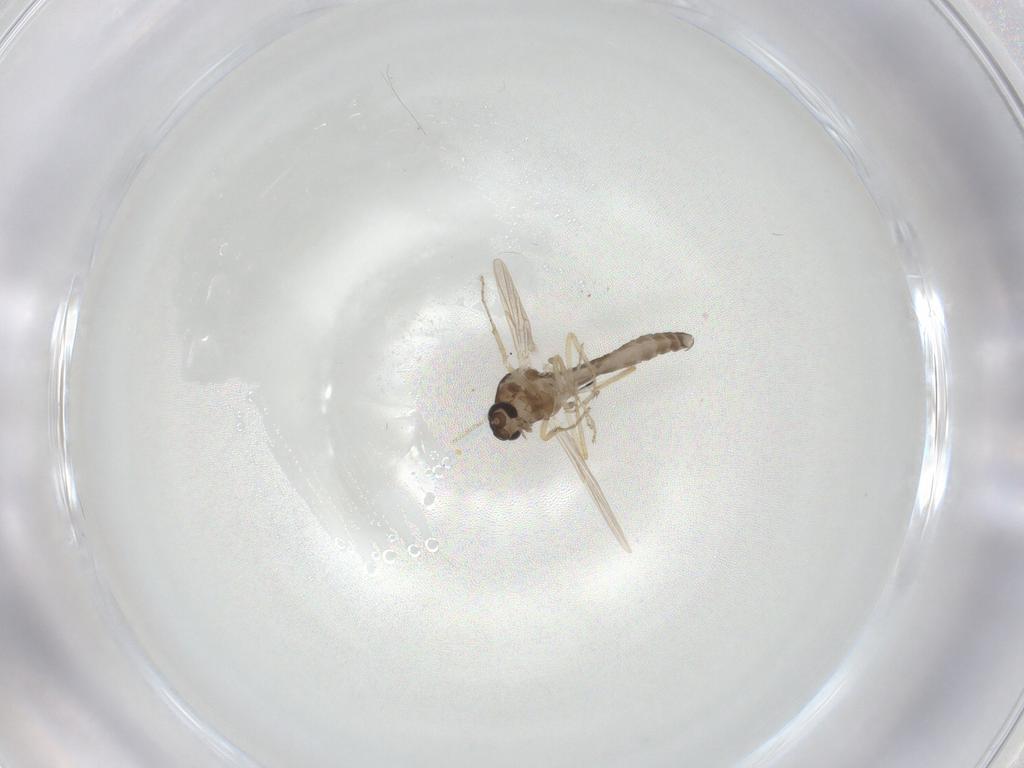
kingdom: Animalia
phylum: Arthropoda
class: Insecta
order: Diptera
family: Ceratopogonidae
